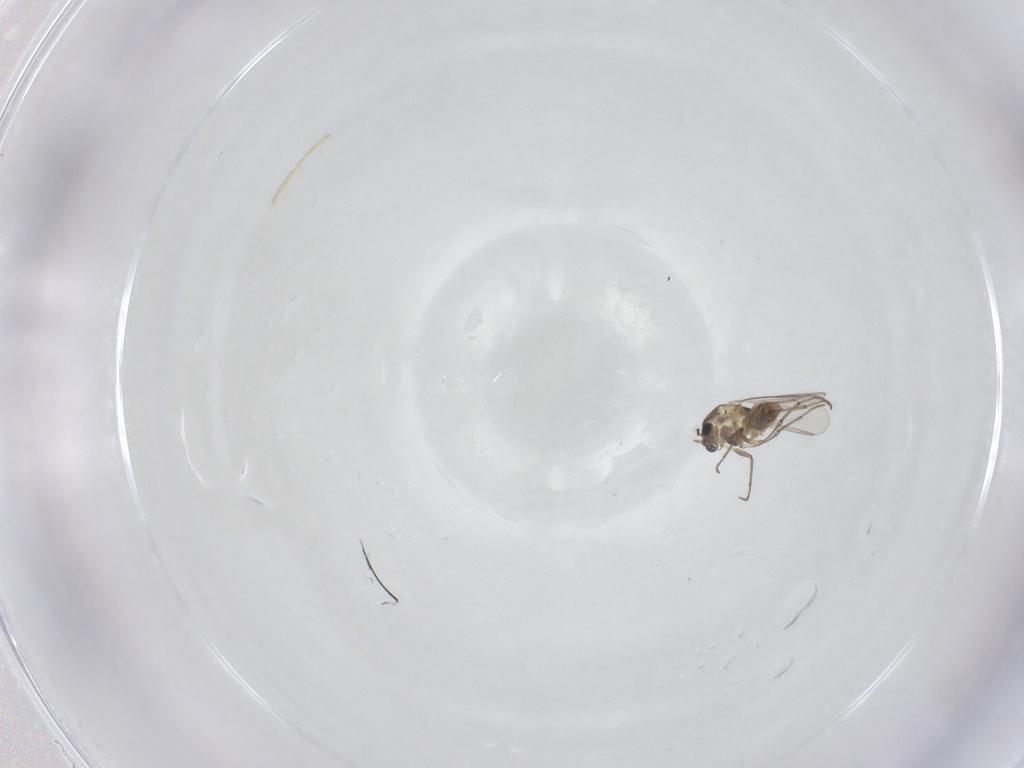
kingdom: Animalia
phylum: Arthropoda
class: Insecta
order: Diptera
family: Chironomidae
